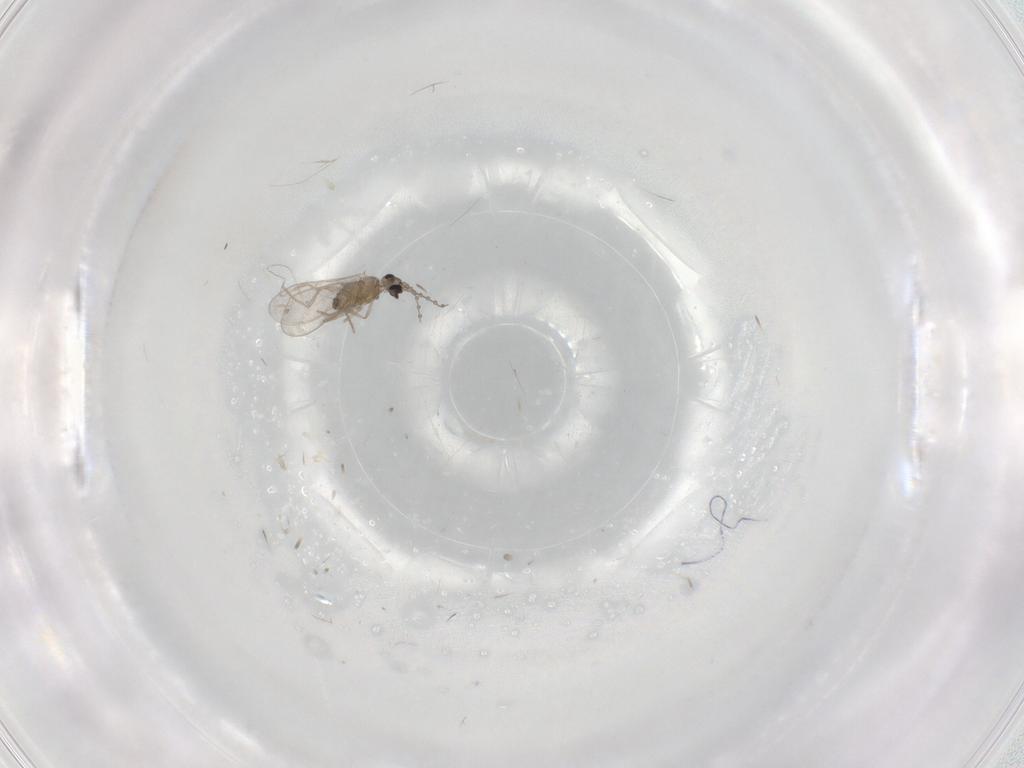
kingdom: Animalia
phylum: Arthropoda
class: Insecta
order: Diptera
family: Cecidomyiidae
